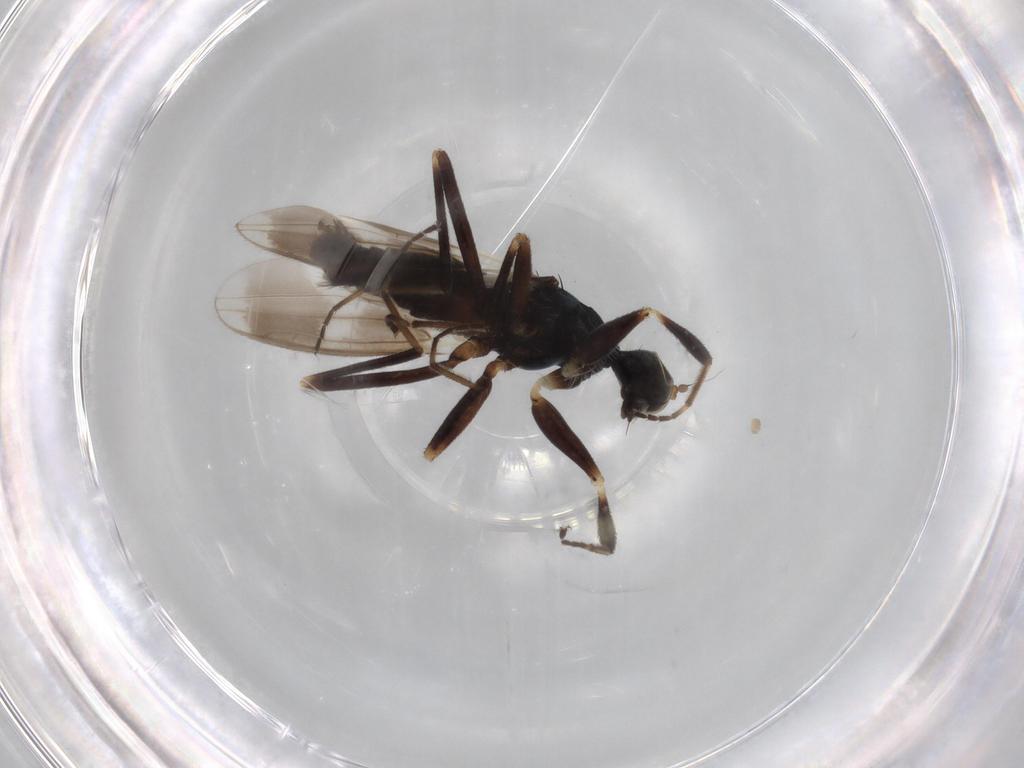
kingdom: Animalia
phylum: Arthropoda
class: Insecta
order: Diptera
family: Hybotidae
